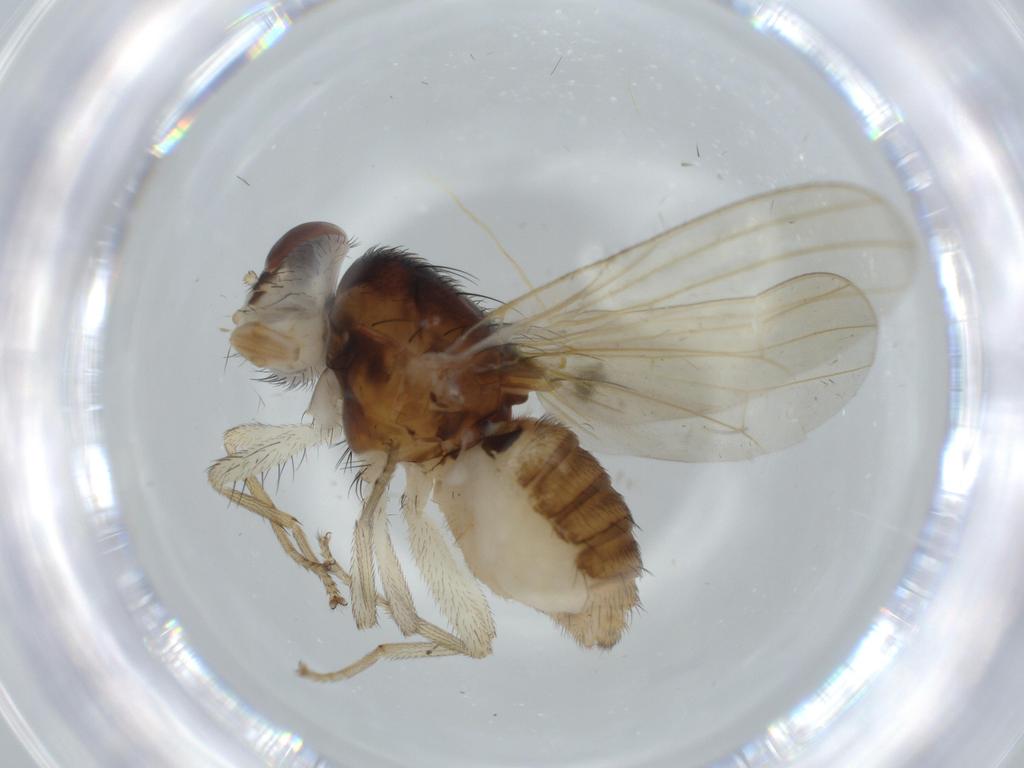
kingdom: Animalia
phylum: Arthropoda
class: Insecta
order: Diptera
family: Lauxaniidae
